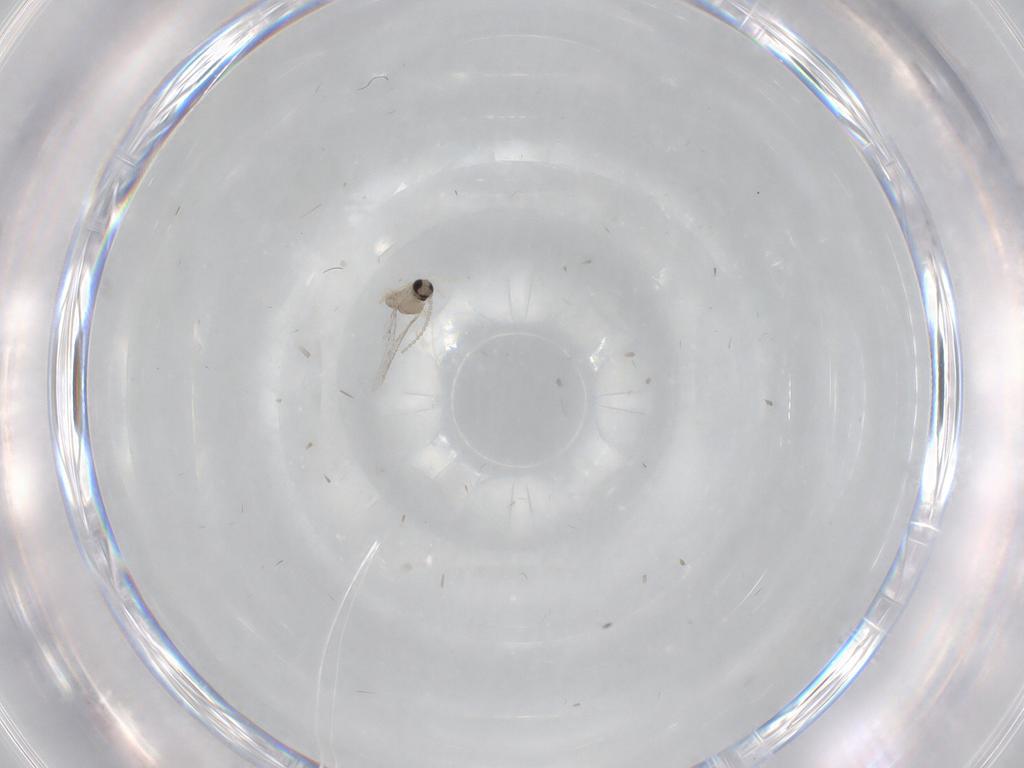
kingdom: Animalia
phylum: Arthropoda
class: Insecta
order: Diptera
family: Cecidomyiidae
